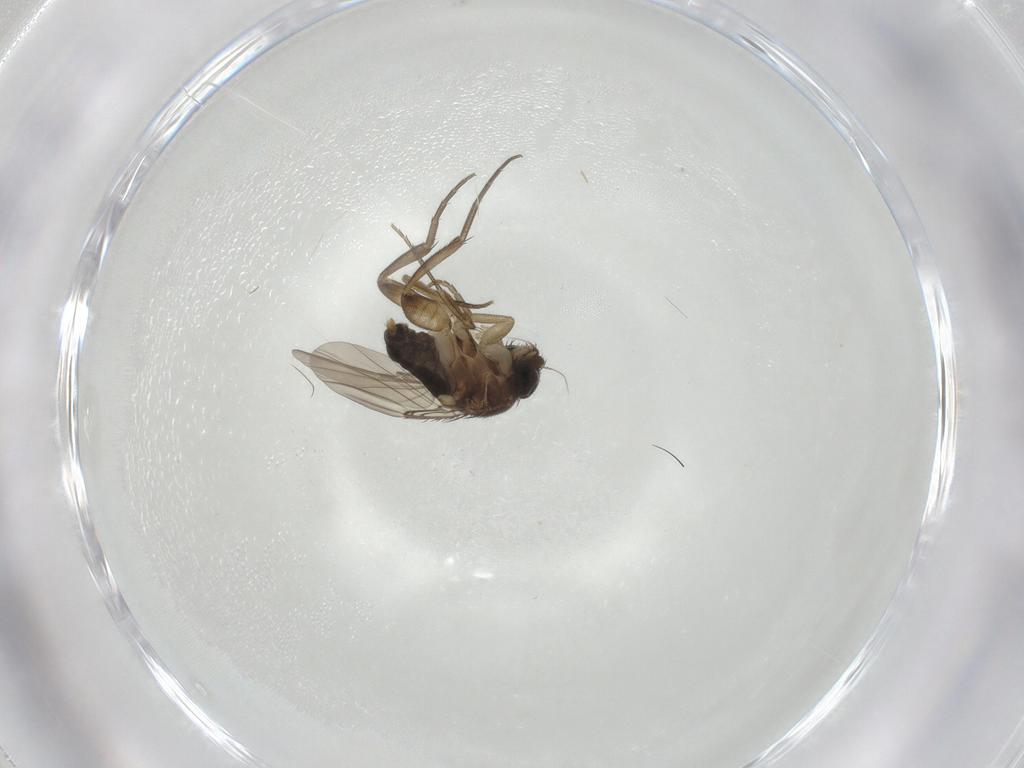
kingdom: Animalia
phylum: Arthropoda
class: Insecta
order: Diptera
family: Phoridae
